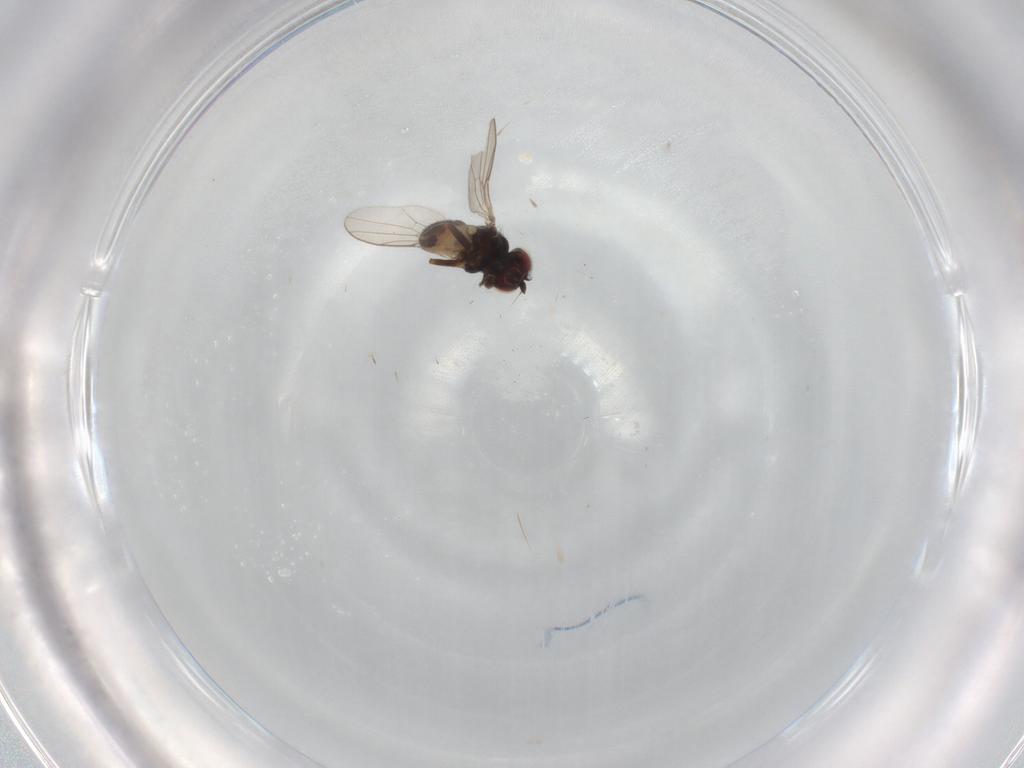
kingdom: Animalia
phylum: Arthropoda
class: Insecta
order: Diptera
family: Chloropidae
